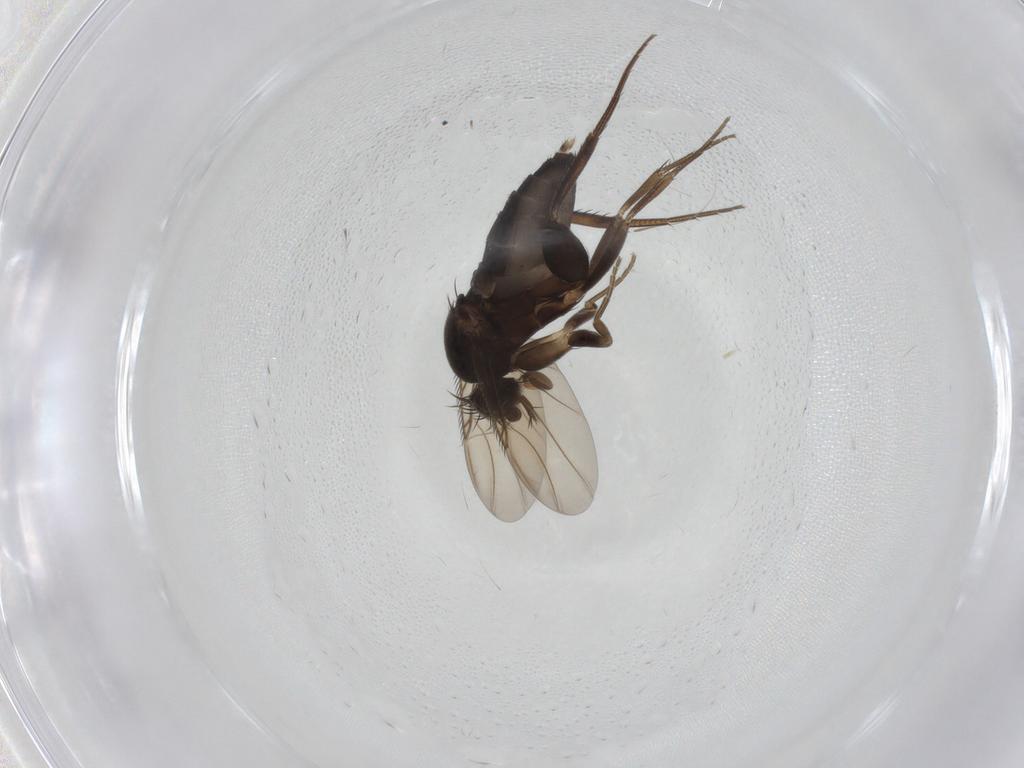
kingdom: Animalia
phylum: Arthropoda
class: Insecta
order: Diptera
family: Phoridae
